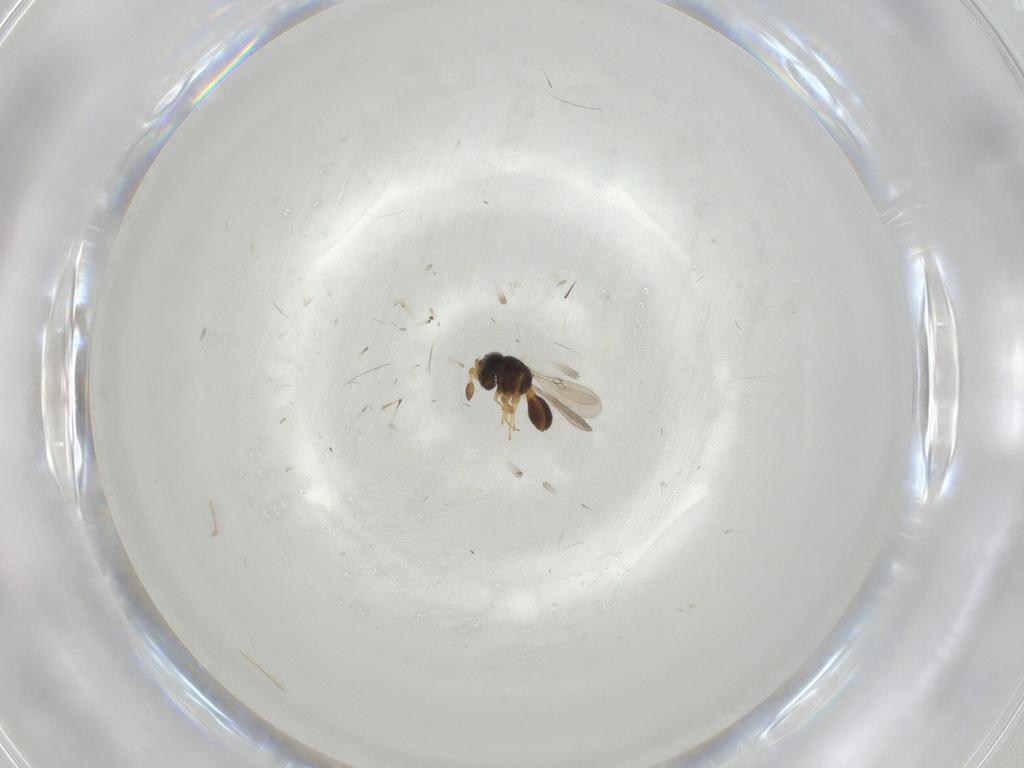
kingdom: Animalia
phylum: Arthropoda
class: Insecta
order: Hymenoptera
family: Scelionidae
